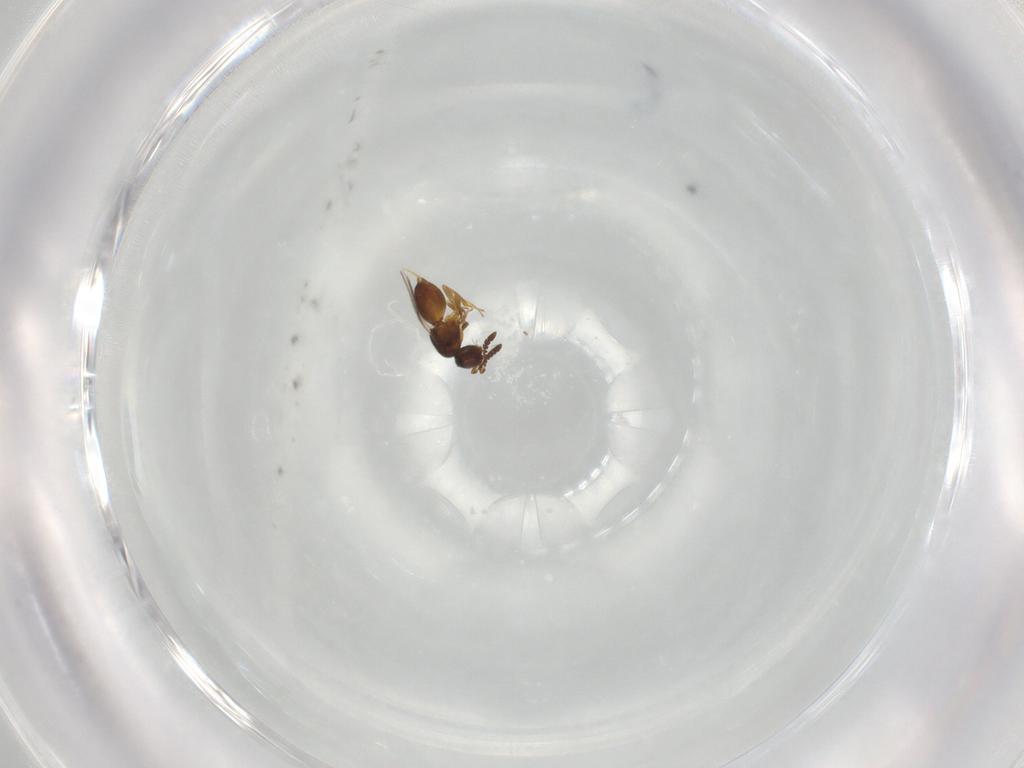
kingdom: Animalia
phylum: Arthropoda
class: Insecta
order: Hymenoptera
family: Ceraphronidae
